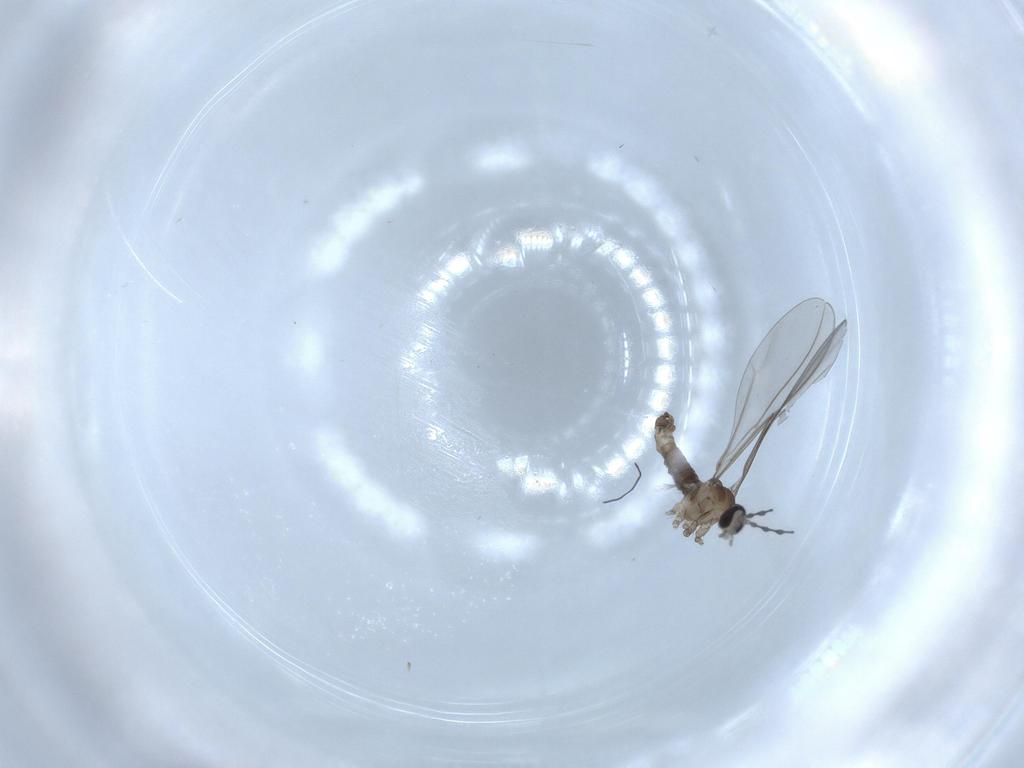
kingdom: Animalia
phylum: Arthropoda
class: Insecta
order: Diptera
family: Cecidomyiidae
